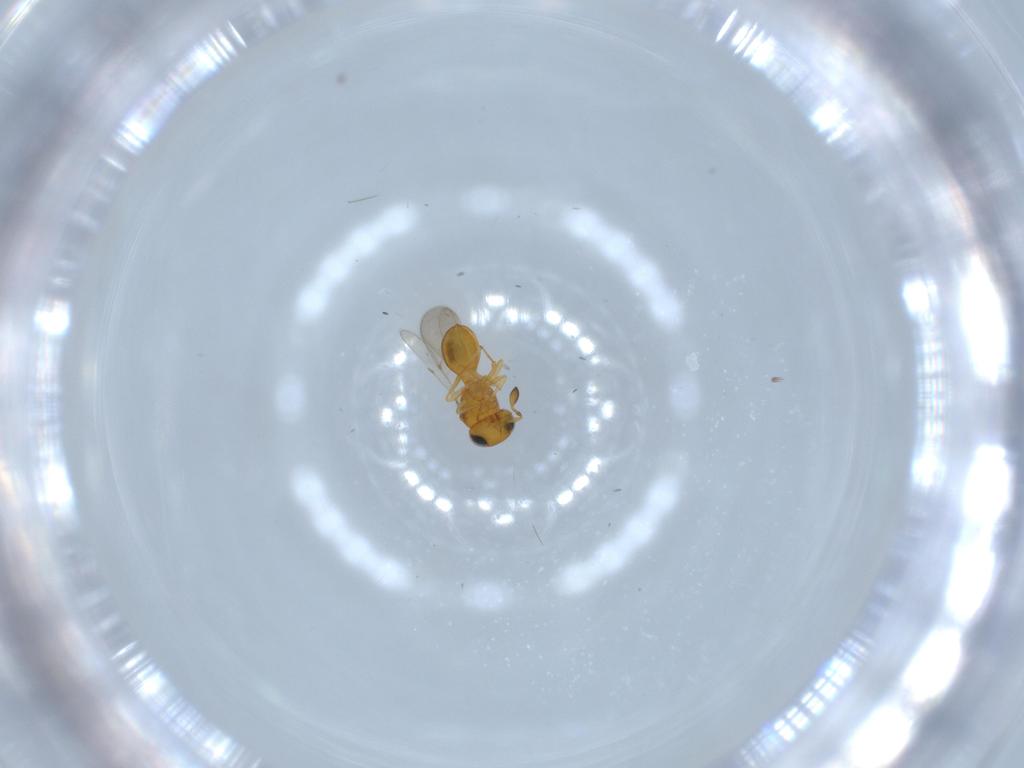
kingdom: Animalia
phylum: Arthropoda
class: Insecta
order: Hymenoptera
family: Scelionidae
